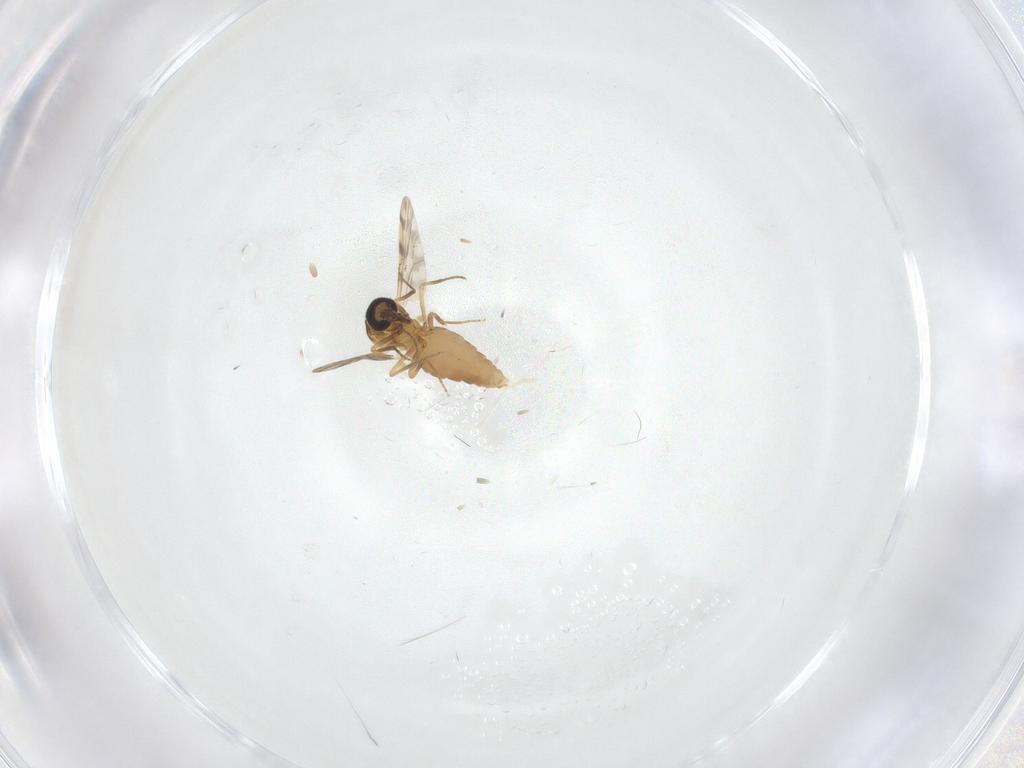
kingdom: Animalia
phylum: Arthropoda
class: Insecta
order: Diptera
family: Ceratopogonidae
